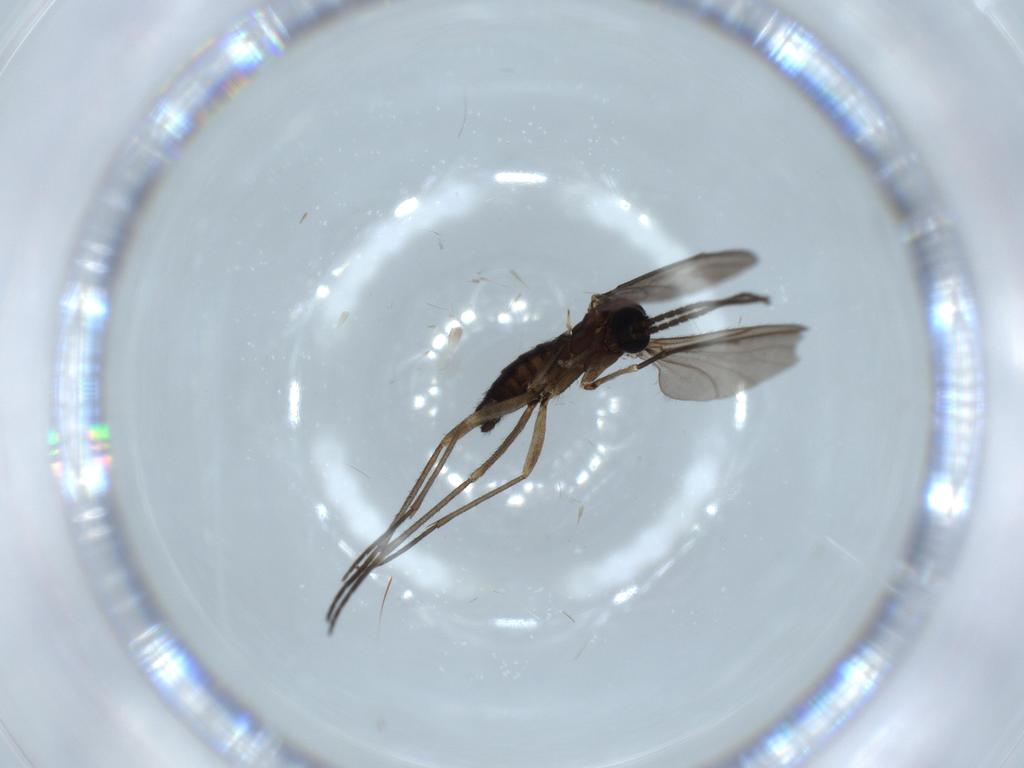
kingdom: Animalia
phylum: Arthropoda
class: Insecta
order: Diptera
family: Sciaridae
